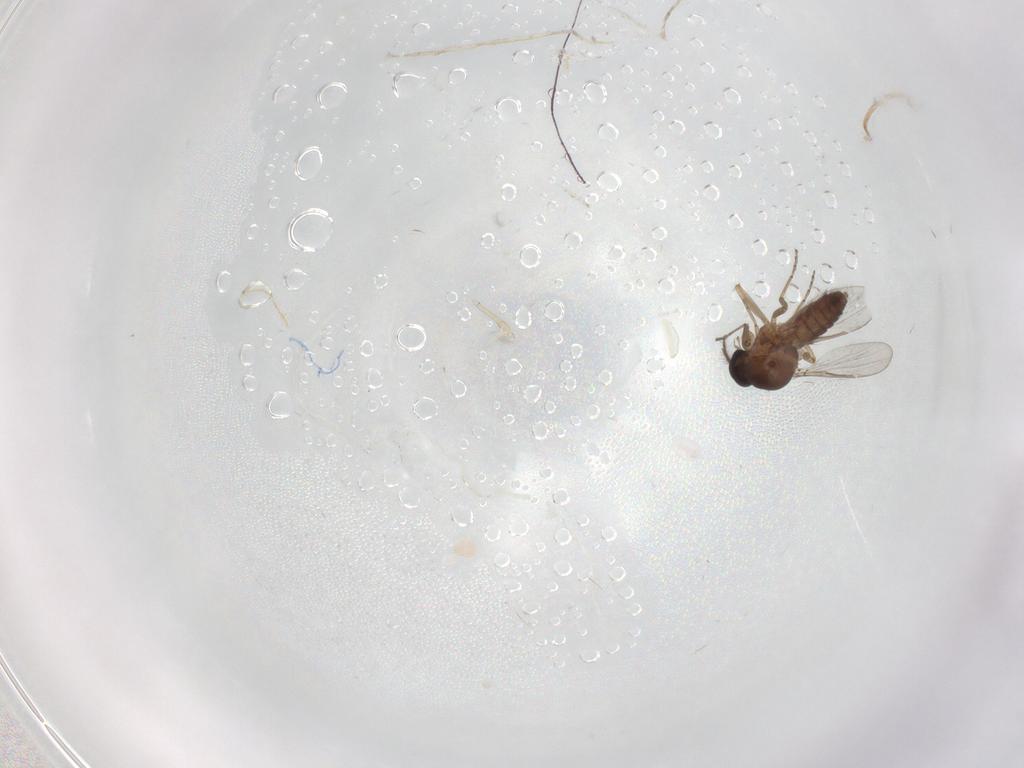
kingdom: Animalia
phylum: Arthropoda
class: Insecta
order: Diptera
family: Ceratopogonidae
